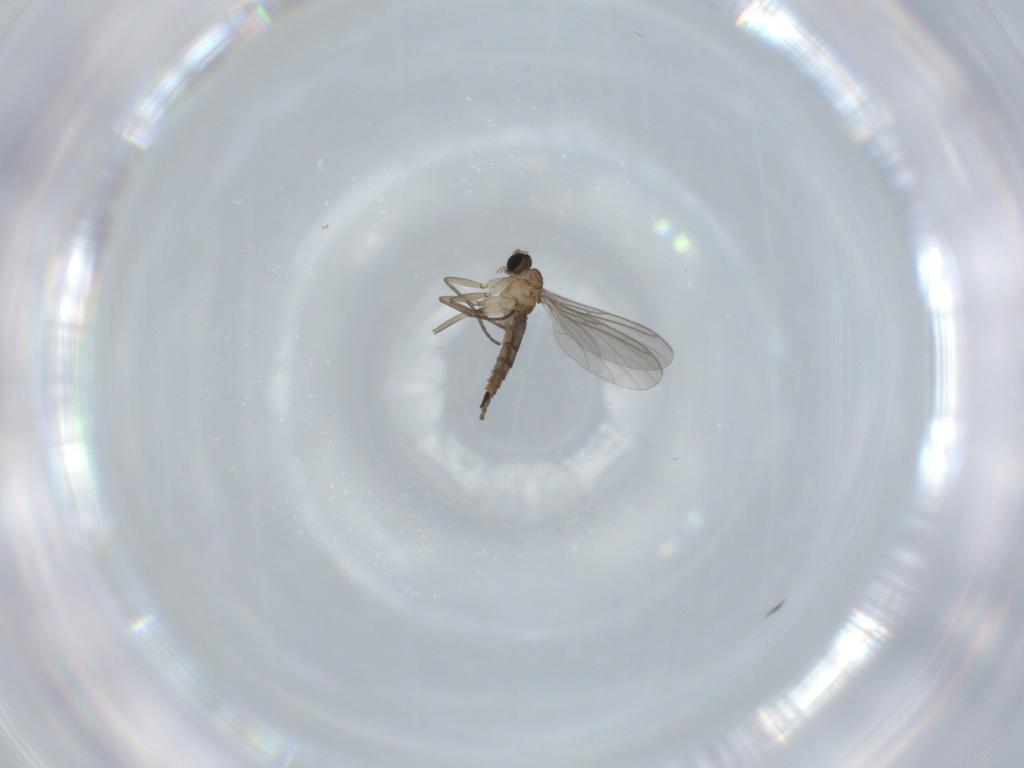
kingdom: Animalia
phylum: Arthropoda
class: Insecta
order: Diptera
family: Sciaridae
